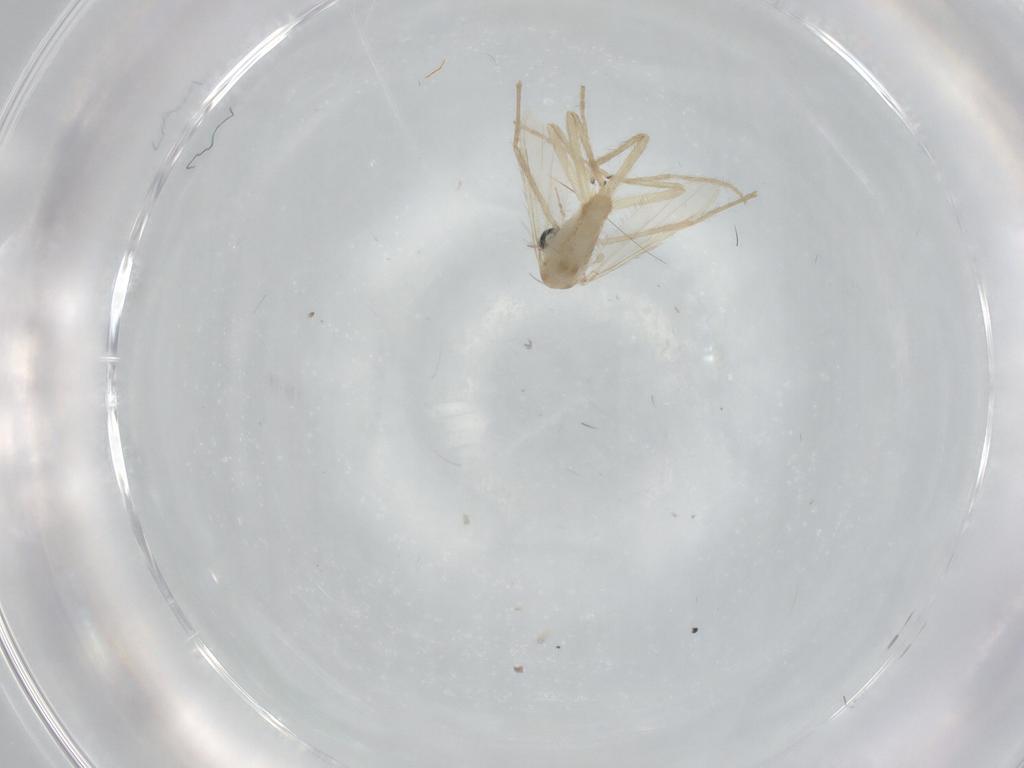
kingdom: Animalia
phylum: Arthropoda
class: Insecta
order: Diptera
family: Chironomidae
